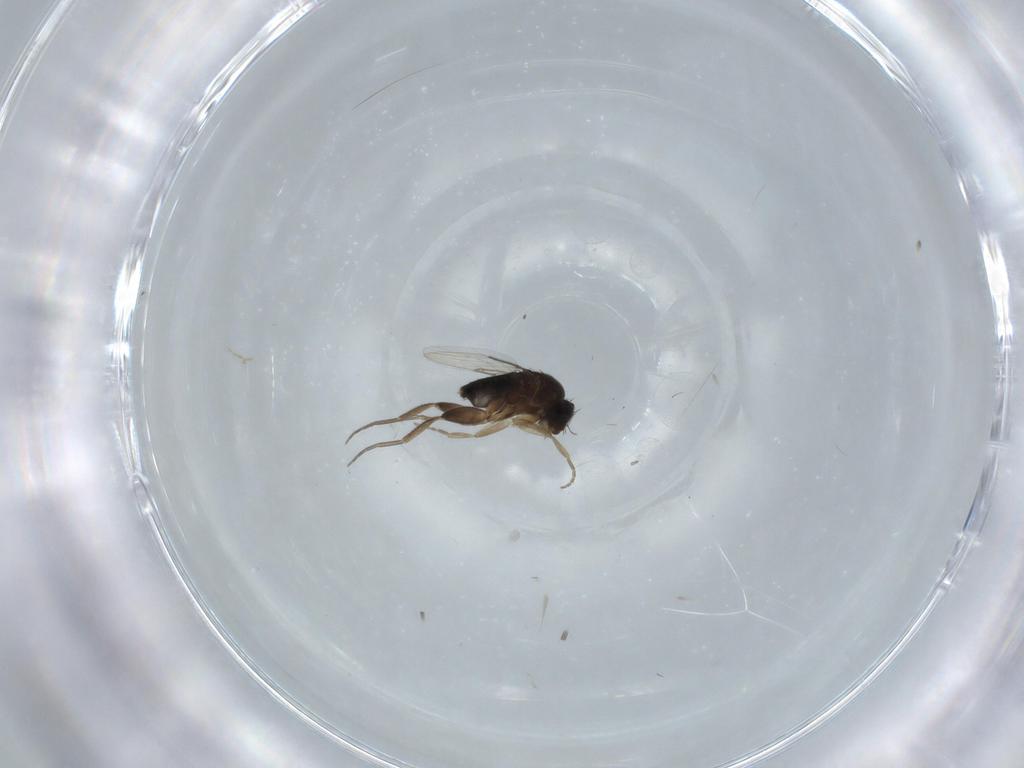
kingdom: Animalia
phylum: Arthropoda
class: Insecta
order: Diptera
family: Phoridae
